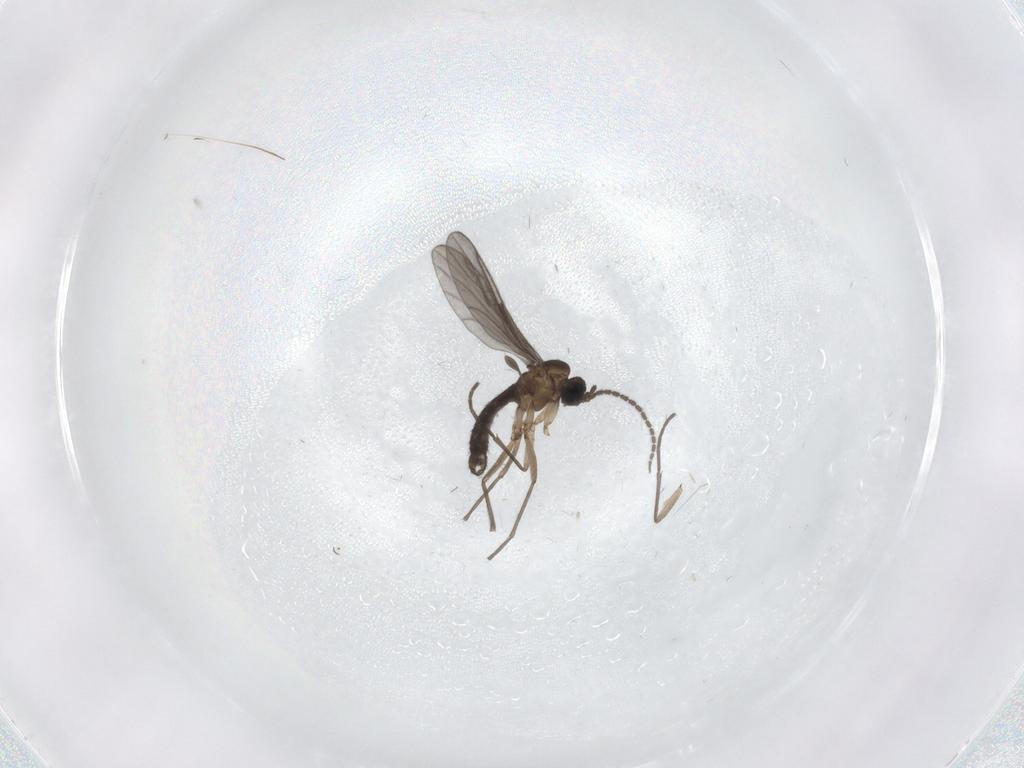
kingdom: Animalia
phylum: Arthropoda
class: Insecta
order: Diptera
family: Sciaridae
